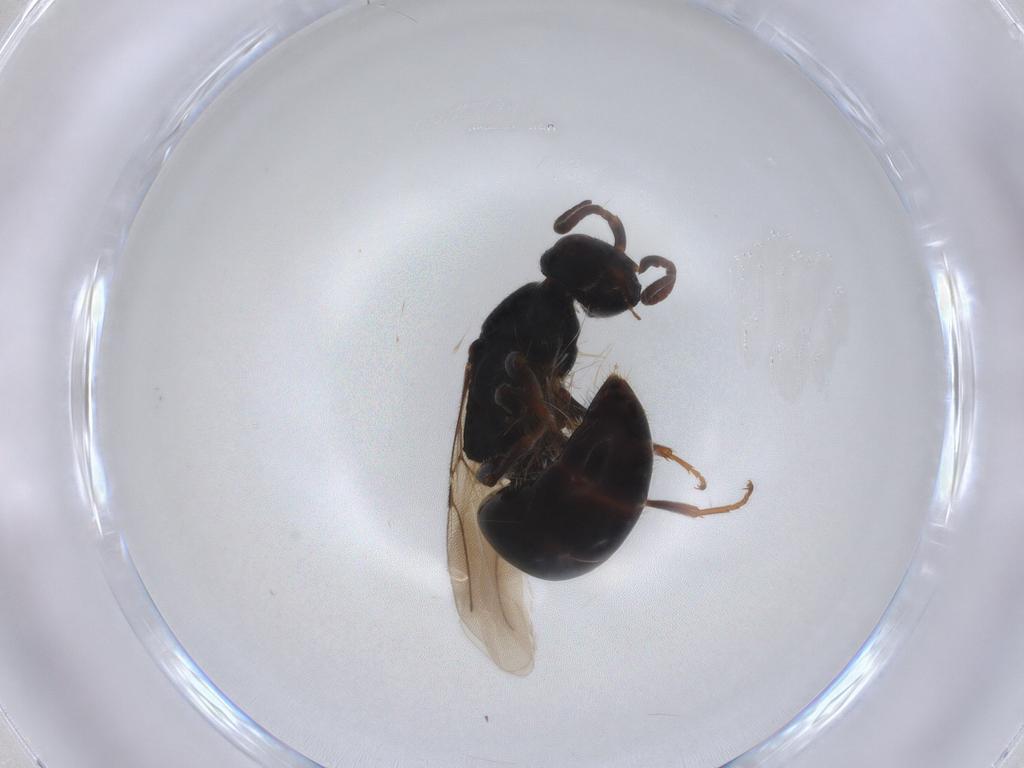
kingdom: Animalia
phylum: Arthropoda
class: Insecta
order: Hymenoptera
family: Bethylidae
